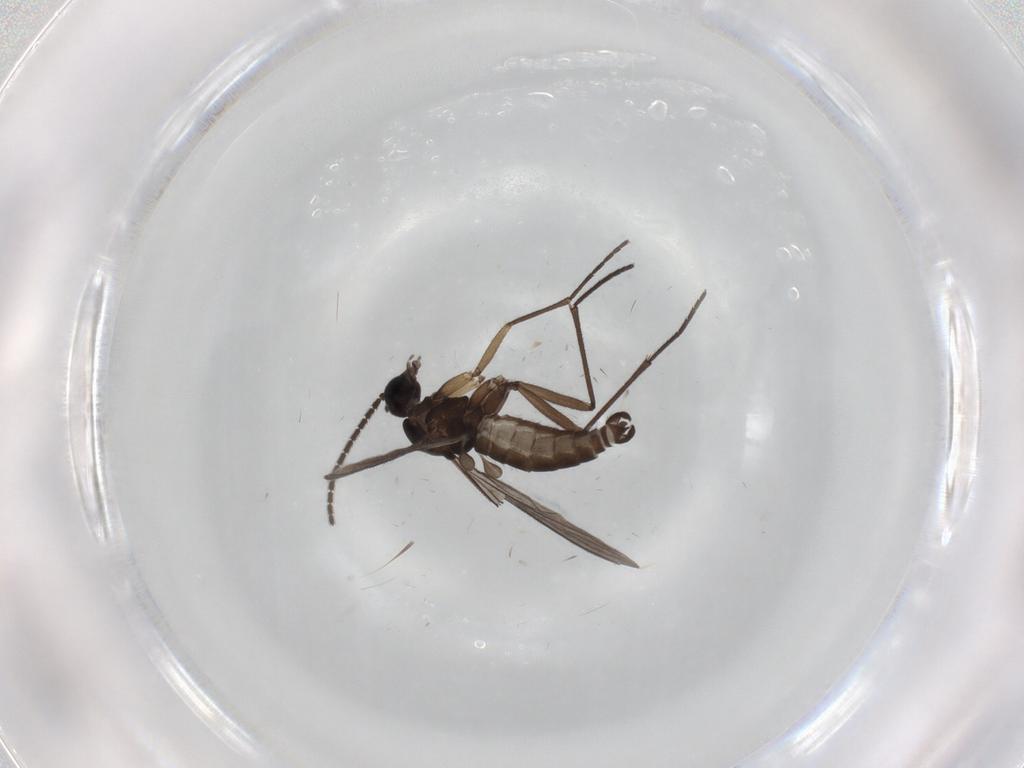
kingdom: Animalia
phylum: Arthropoda
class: Insecta
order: Diptera
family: Sciaridae
